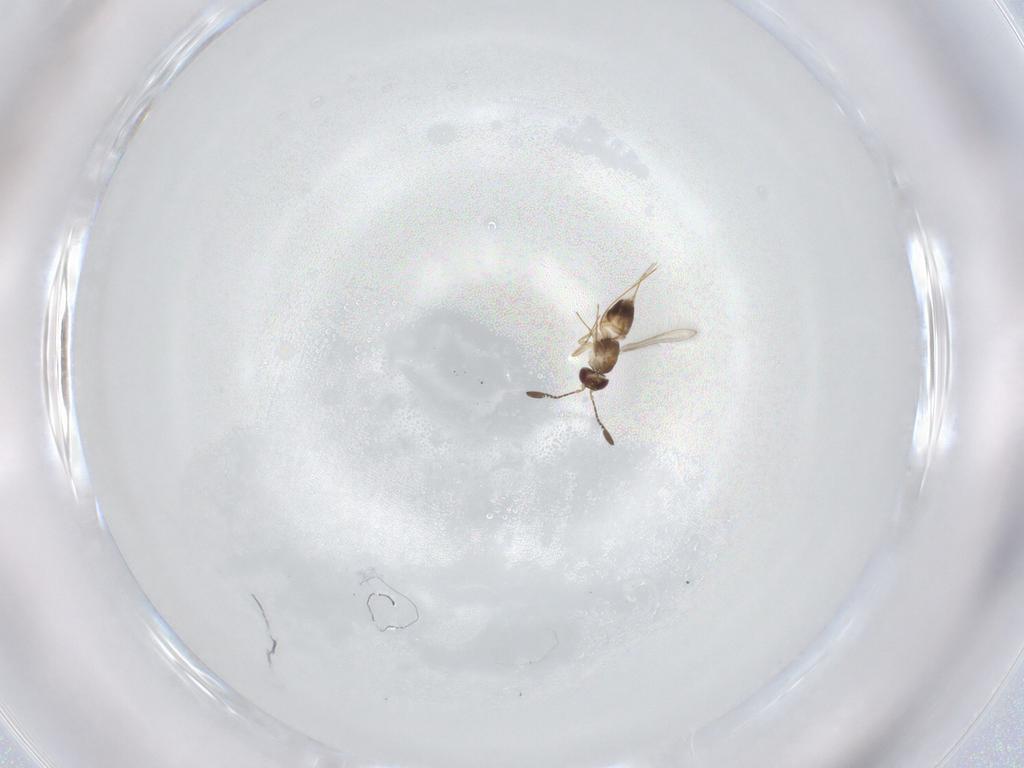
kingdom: Animalia
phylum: Arthropoda
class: Insecta
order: Hymenoptera
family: Mymaridae
